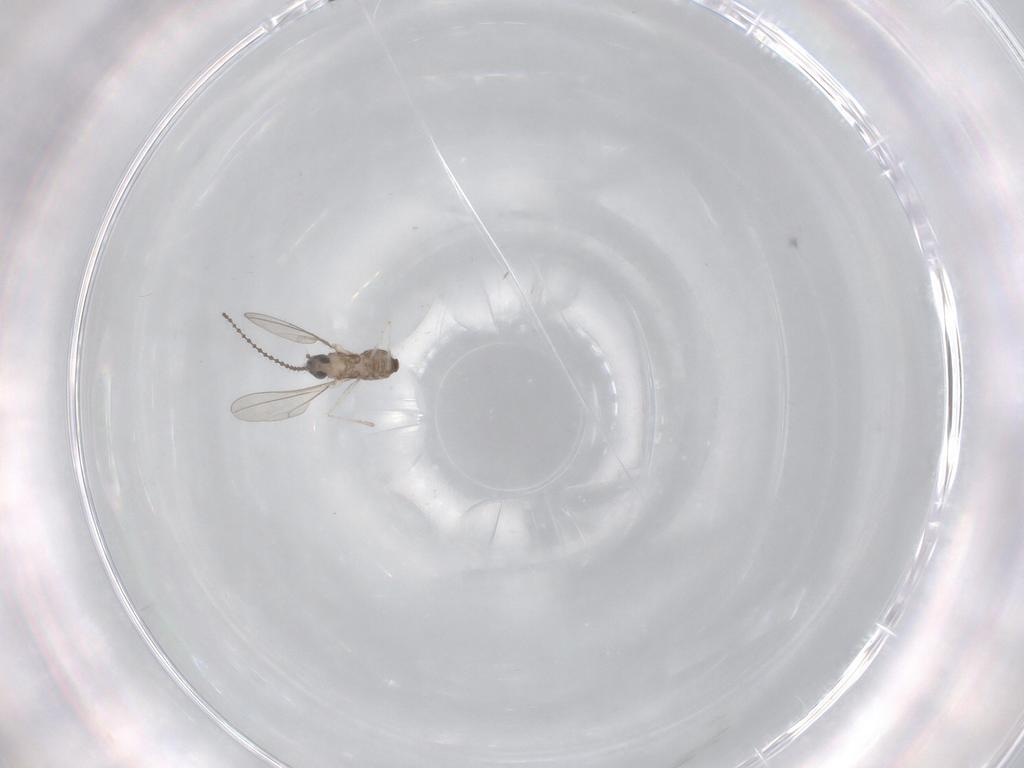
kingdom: Animalia
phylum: Arthropoda
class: Insecta
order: Diptera
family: Cecidomyiidae
